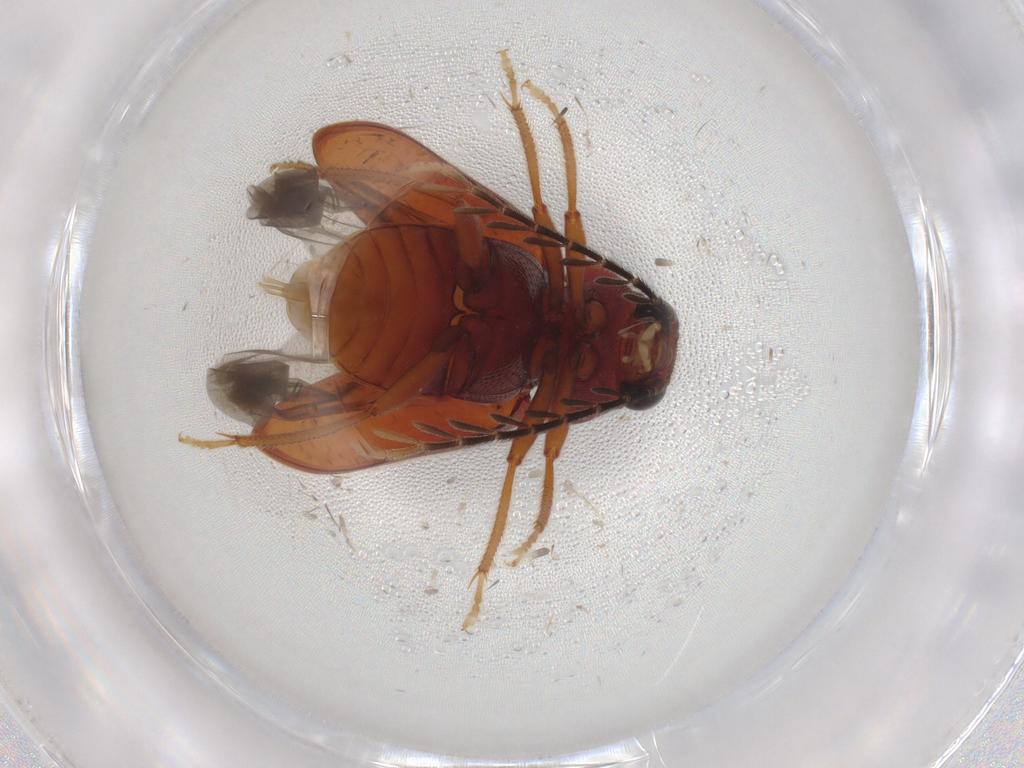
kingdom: Animalia
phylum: Arthropoda
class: Insecta
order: Coleoptera
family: Ptilodactylidae
